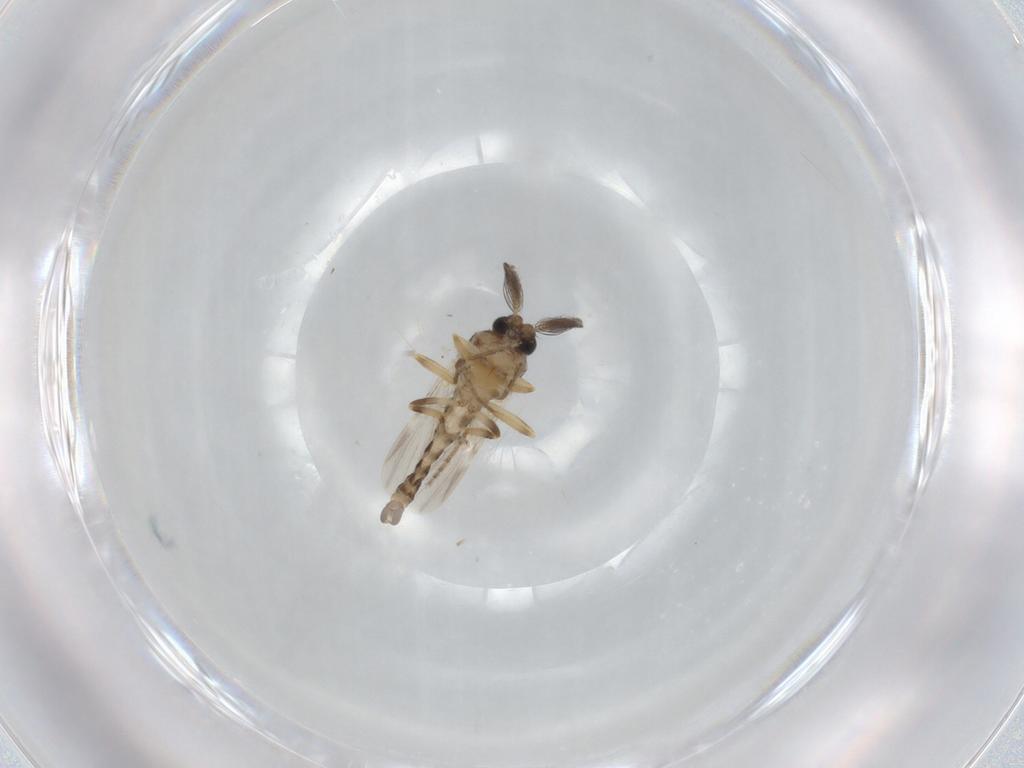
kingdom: Animalia
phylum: Arthropoda
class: Insecta
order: Diptera
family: Ceratopogonidae
